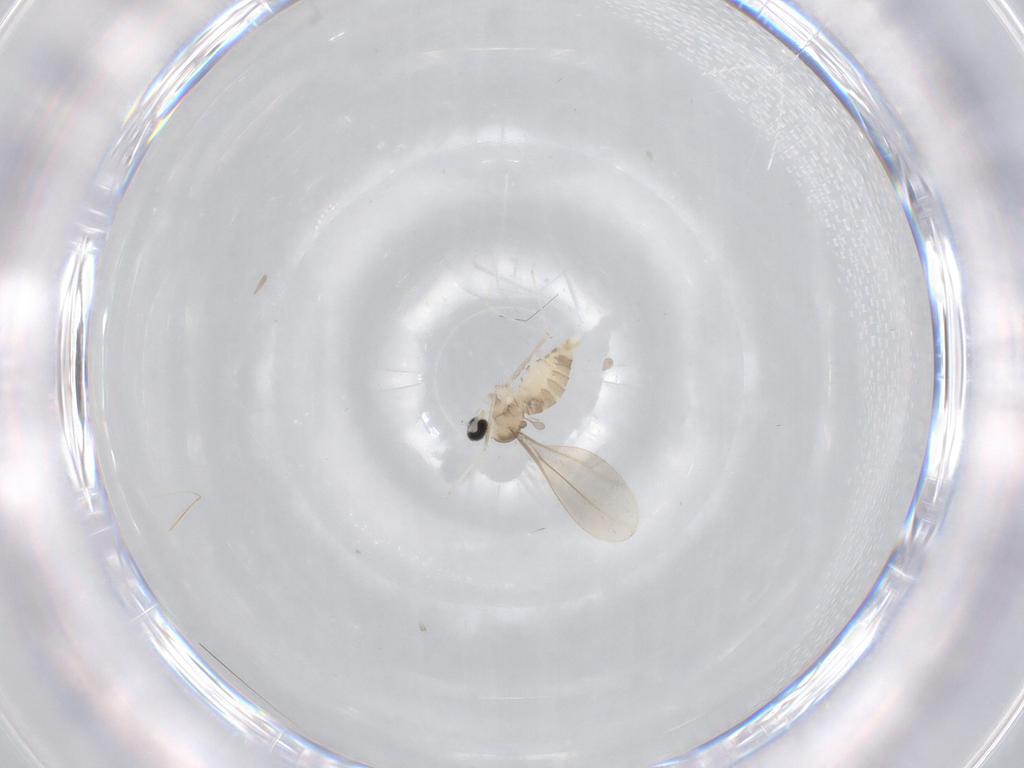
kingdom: Animalia
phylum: Arthropoda
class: Insecta
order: Diptera
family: Cecidomyiidae
